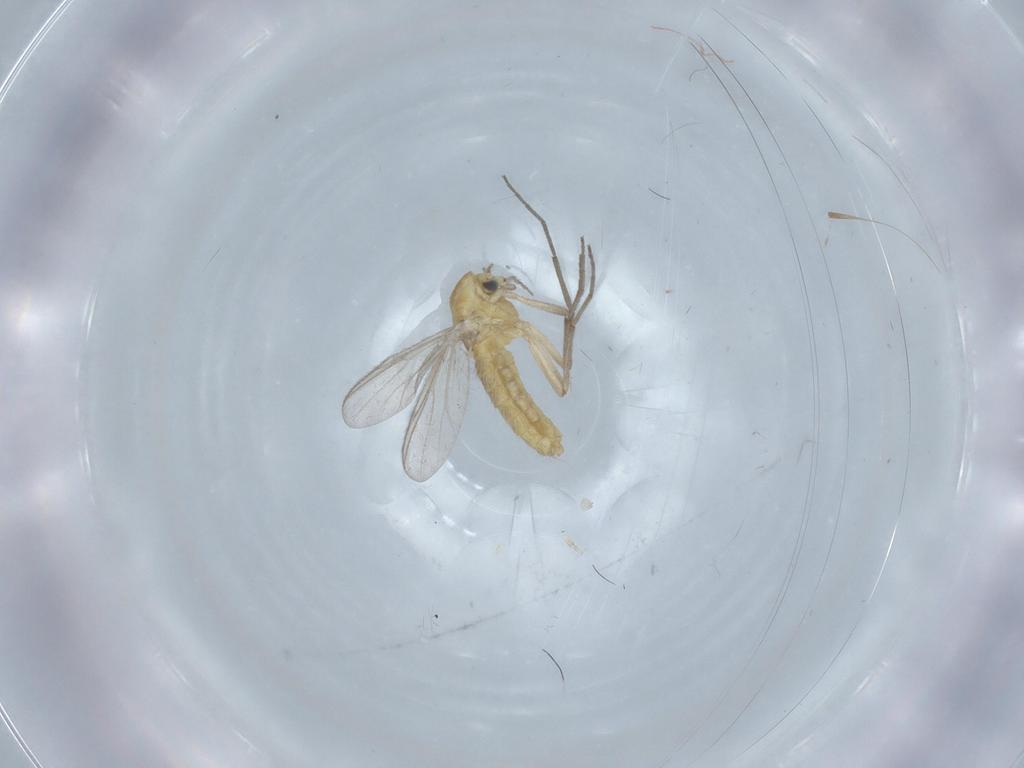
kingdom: Animalia
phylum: Arthropoda
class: Insecta
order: Diptera
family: Chironomidae
